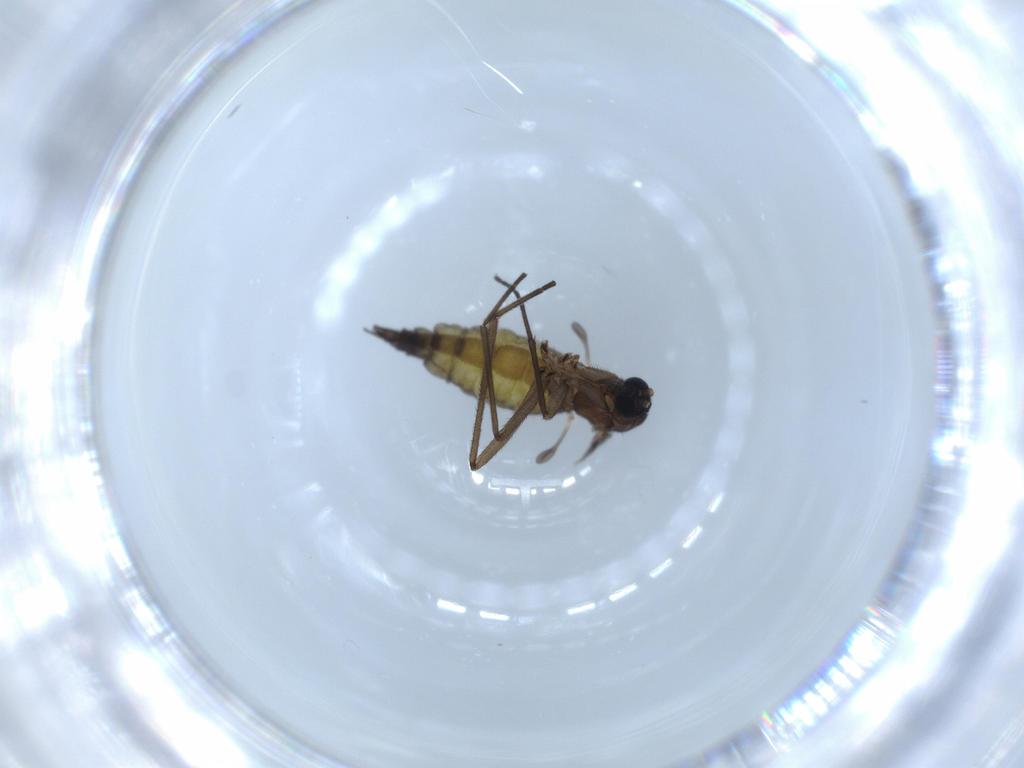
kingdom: Animalia
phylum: Arthropoda
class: Insecta
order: Diptera
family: Sciaridae
